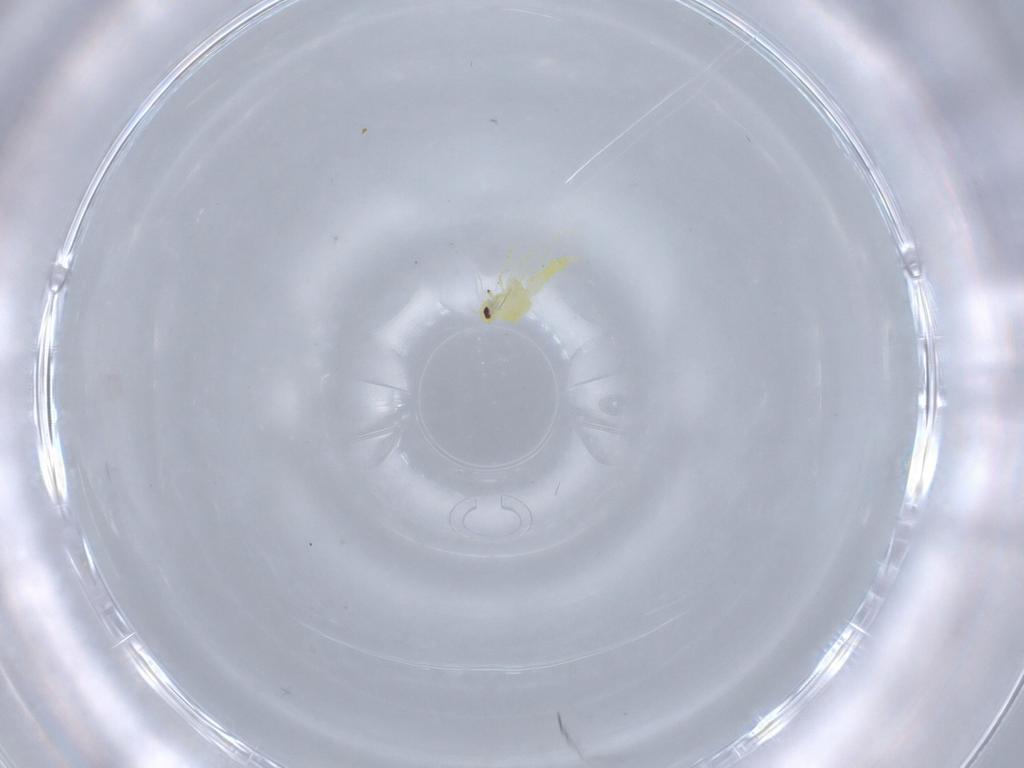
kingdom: Animalia
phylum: Arthropoda
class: Insecta
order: Hemiptera
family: Aleyrodidae
